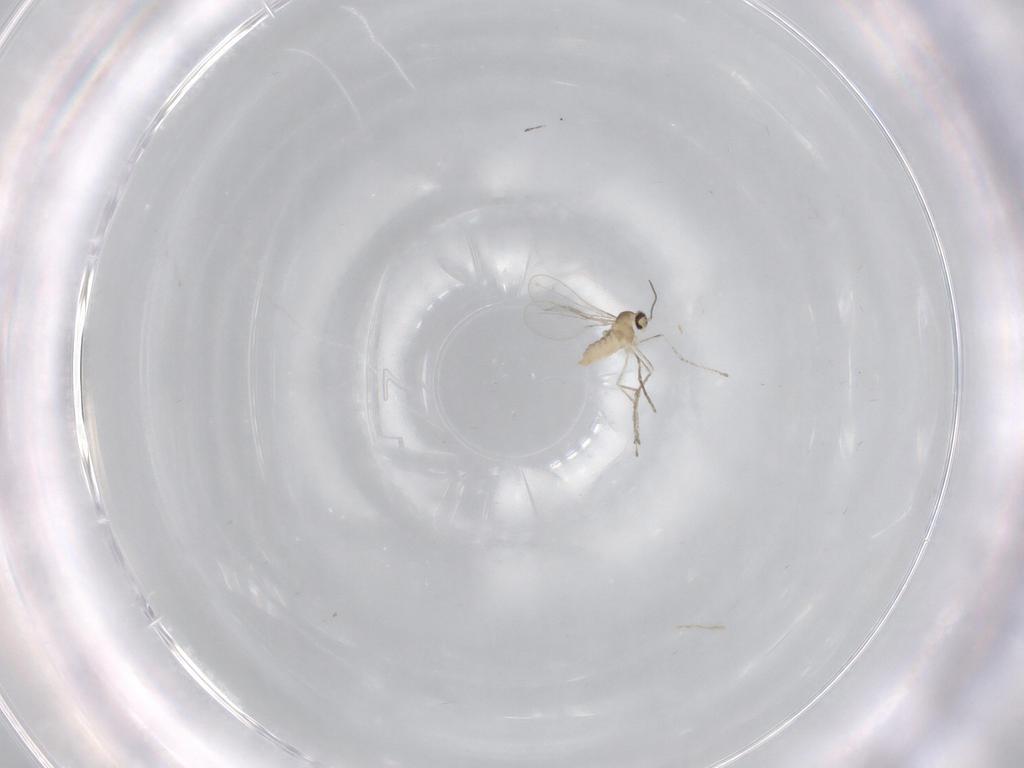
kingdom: Animalia
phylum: Arthropoda
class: Insecta
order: Diptera
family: Cecidomyiidae
